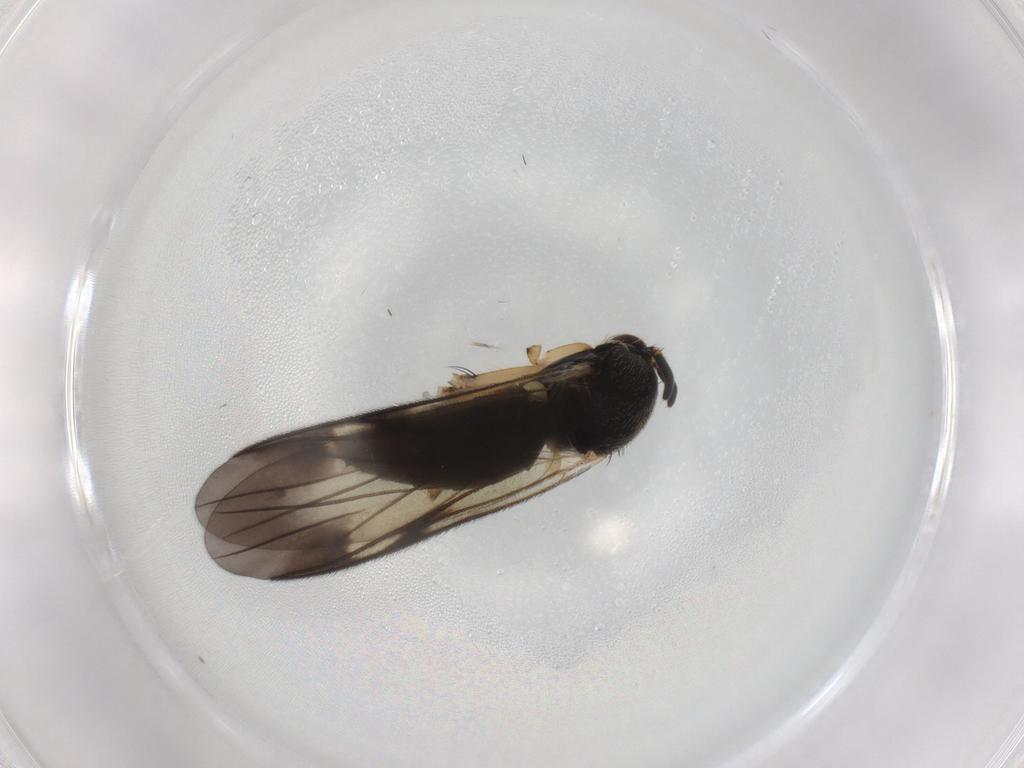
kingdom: Animalia
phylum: Arthropoda
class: Insecta
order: Diptera
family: Mycetophilidae
